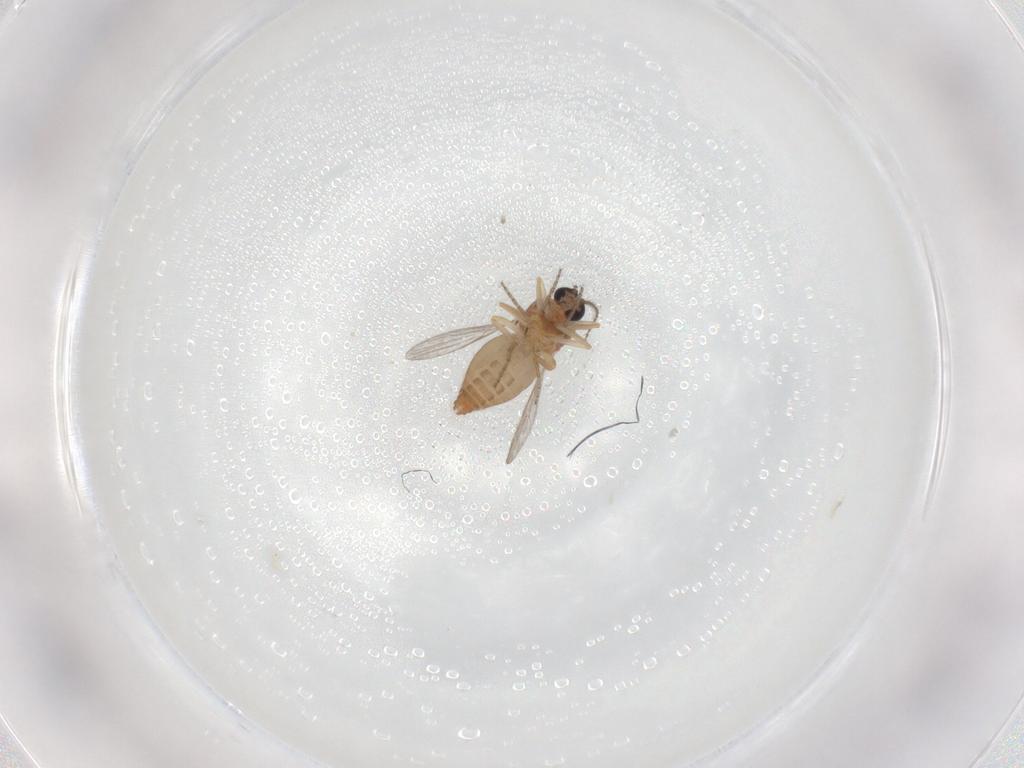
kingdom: Animalia
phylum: Arthropoda
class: Insecta
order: Diptera
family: Ceratopogonidae
